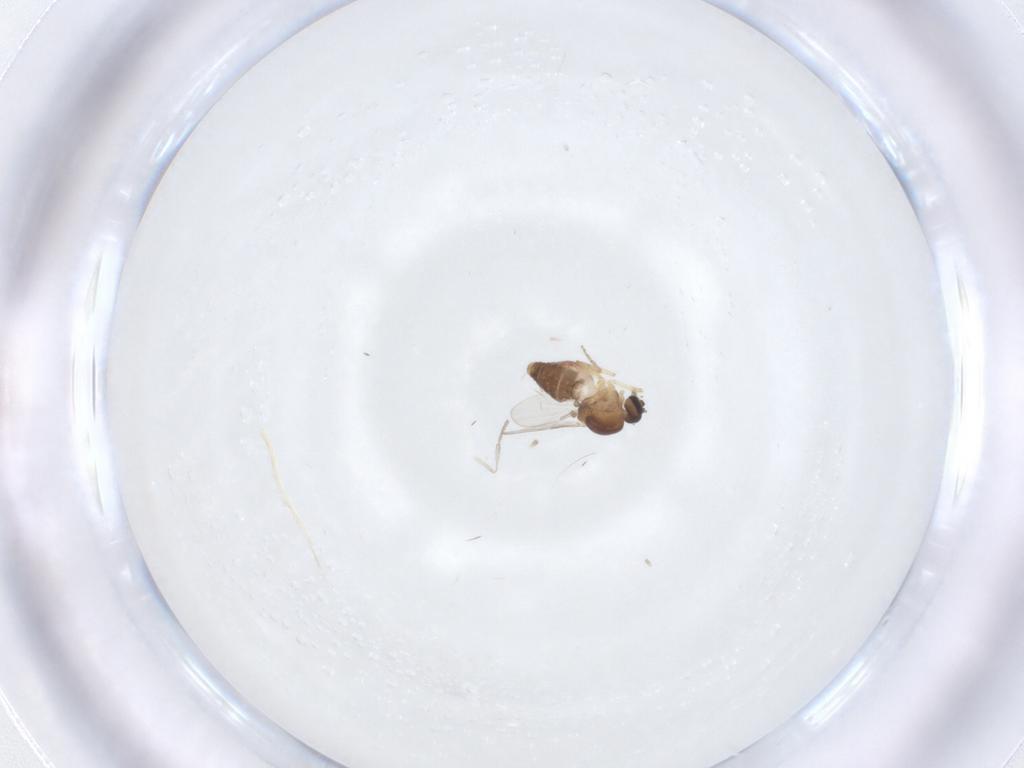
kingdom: Animalia
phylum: Arthropoda
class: Insecta
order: Diptera
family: Ceratopogonidae
